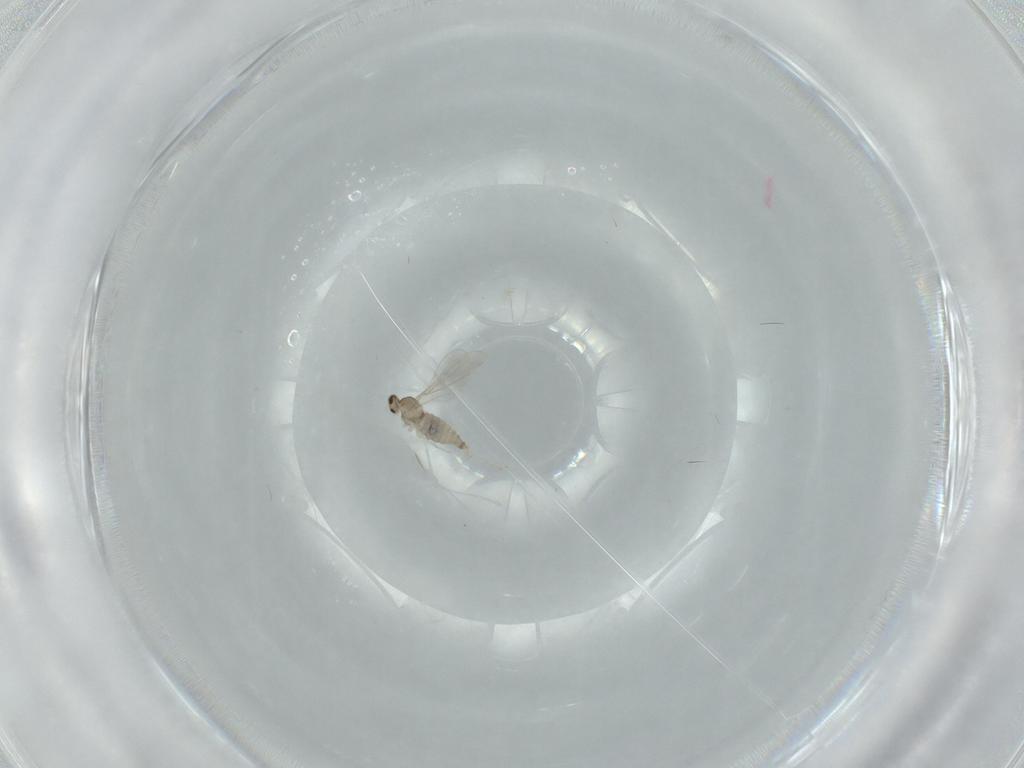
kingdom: Animalia
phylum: Arthropoda
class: Insecta
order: Diptera
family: Cecidomyiidae
